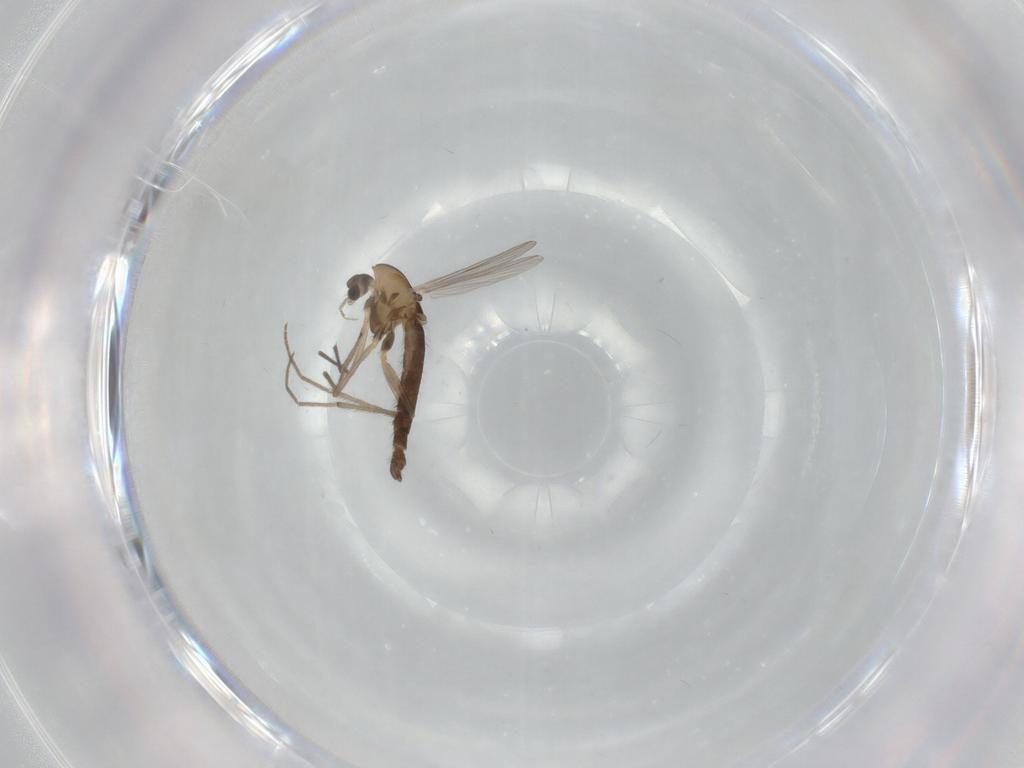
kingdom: Animalia
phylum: Arthropoda
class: Insecta
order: Diptera
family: Chironomidae
